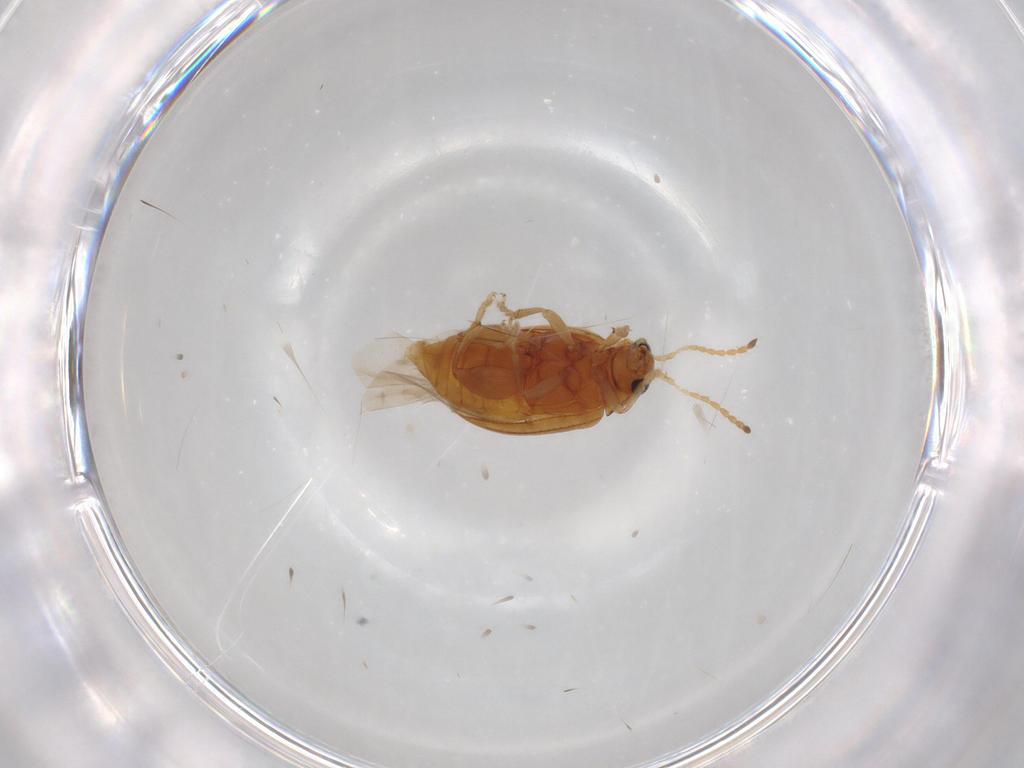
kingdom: Animalia
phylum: Arthropoda
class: Insecta
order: Coleoptera
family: Chrysomelidae
